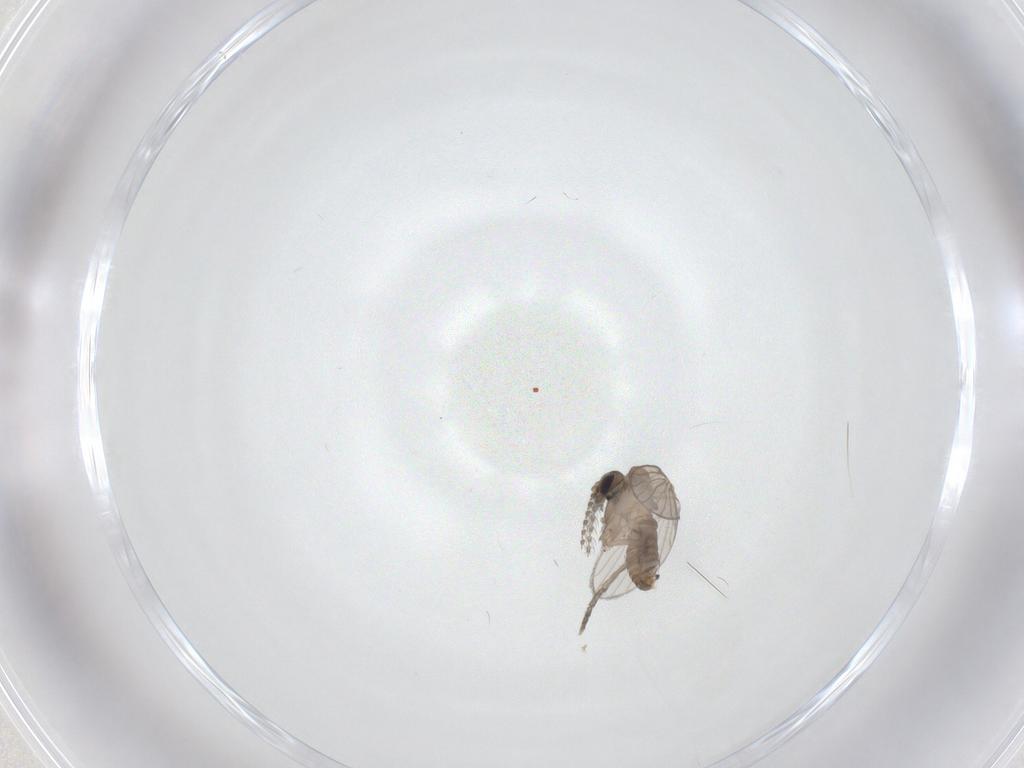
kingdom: Animalia
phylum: Arthropoda
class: Insecta
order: Diptera
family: Psychodidae
